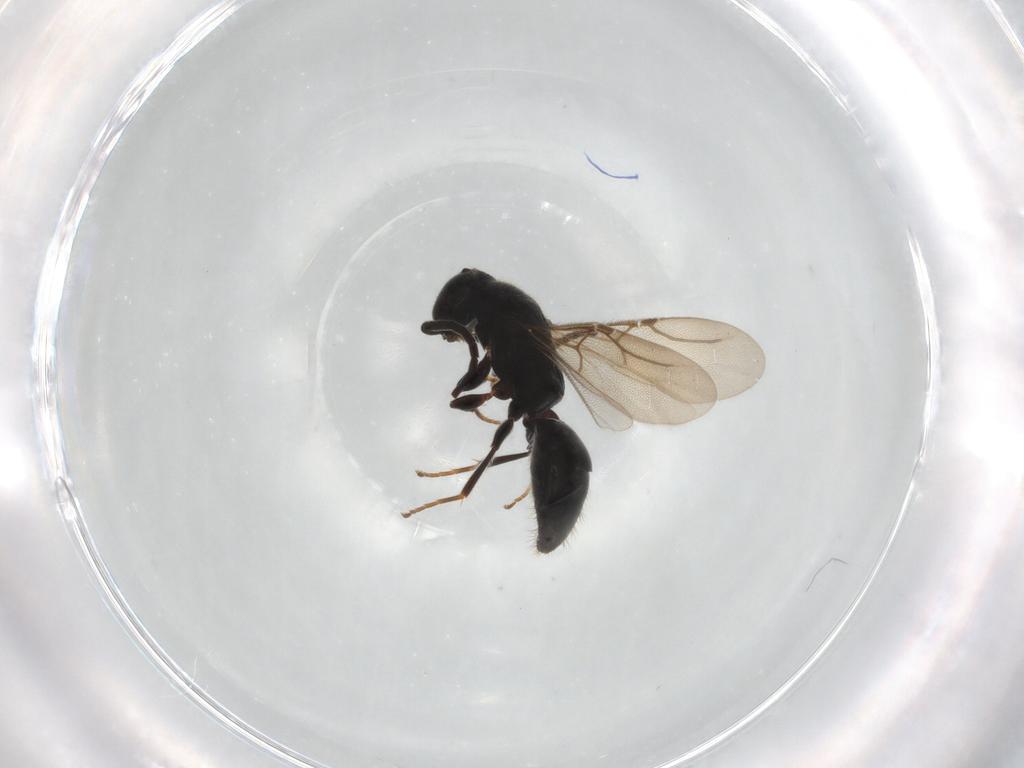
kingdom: Animalia
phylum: Arthropoda
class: Insecta
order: Hymenoptera
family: Bethylidae
